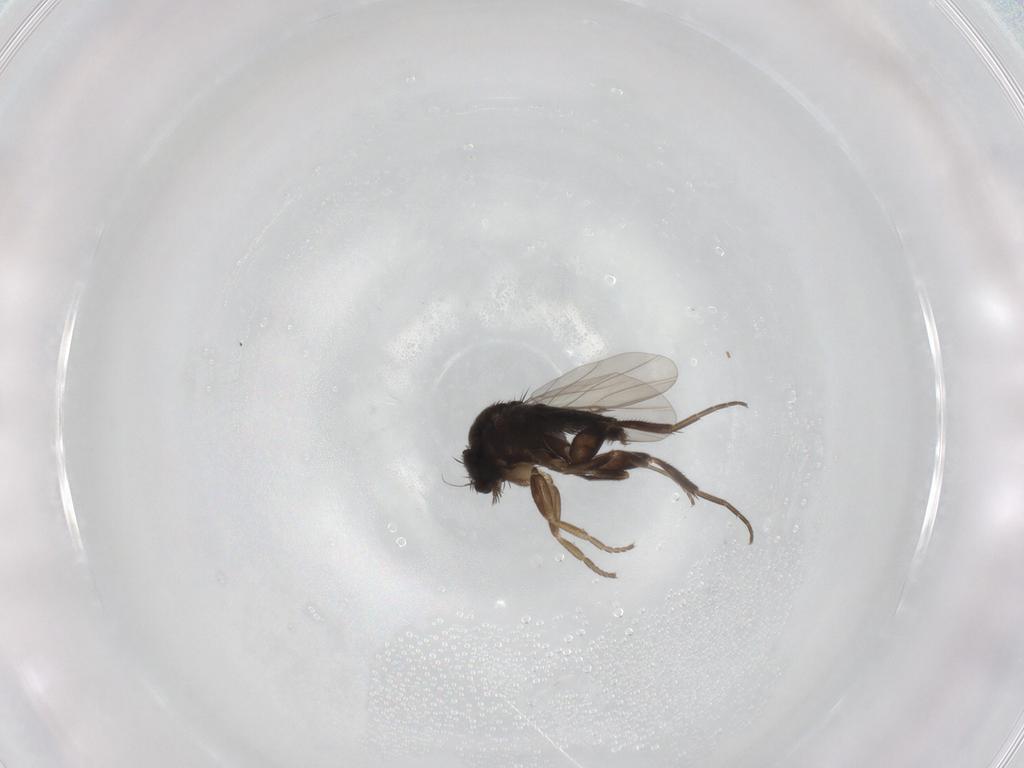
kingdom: Animalia
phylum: Arthropoda
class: Insecta
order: Diptera
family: Phoridae
